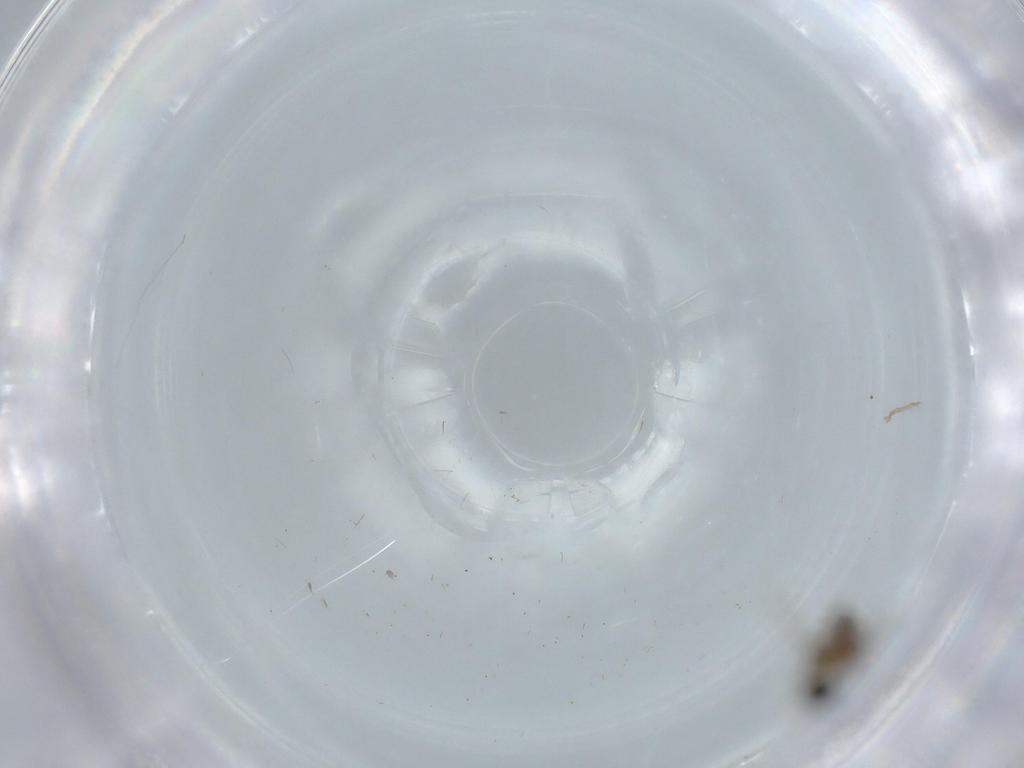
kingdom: Animalia
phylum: Arthropoda
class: Insecta
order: Diptera
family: Cecidomyiidae
